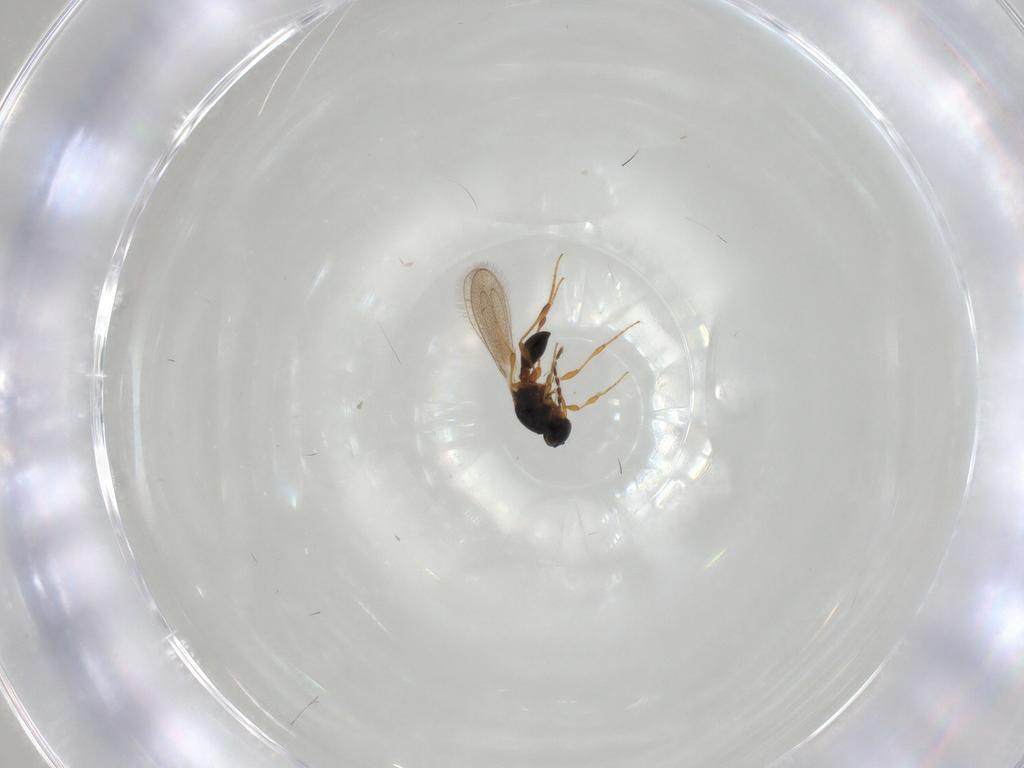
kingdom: Animalia
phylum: Arthropoda
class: Insecta
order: Hymenoptera
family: Platygastridae
